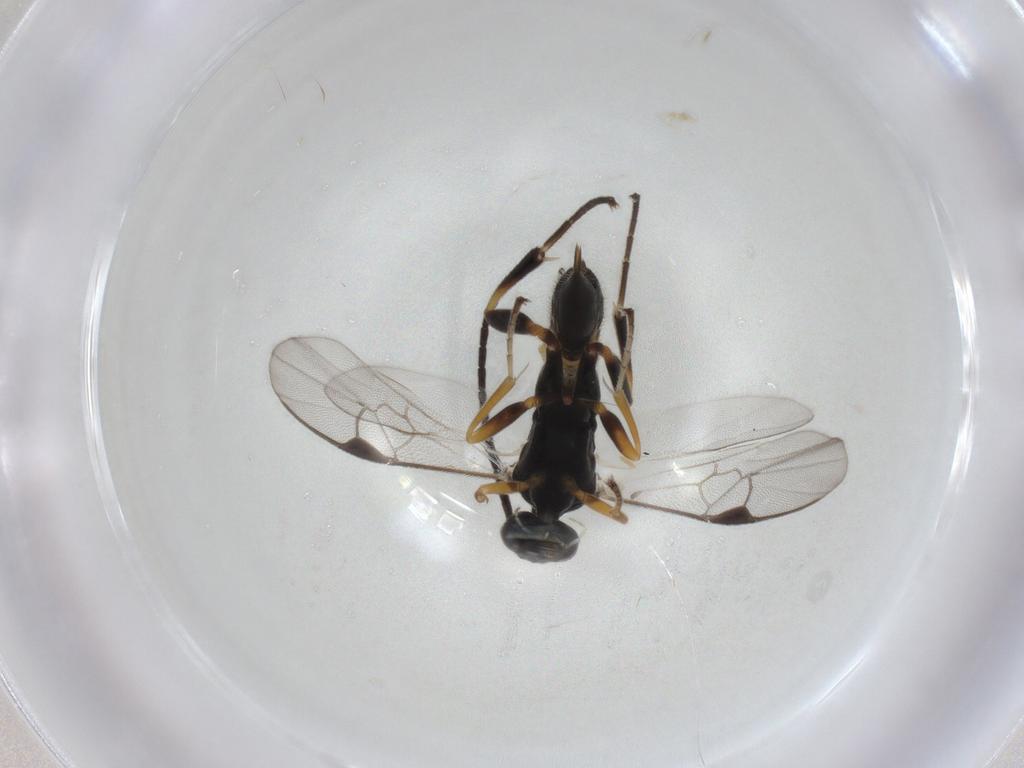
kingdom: Animalia
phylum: Arthropoda
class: Insecta
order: Hymenoptera
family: Braconidae
